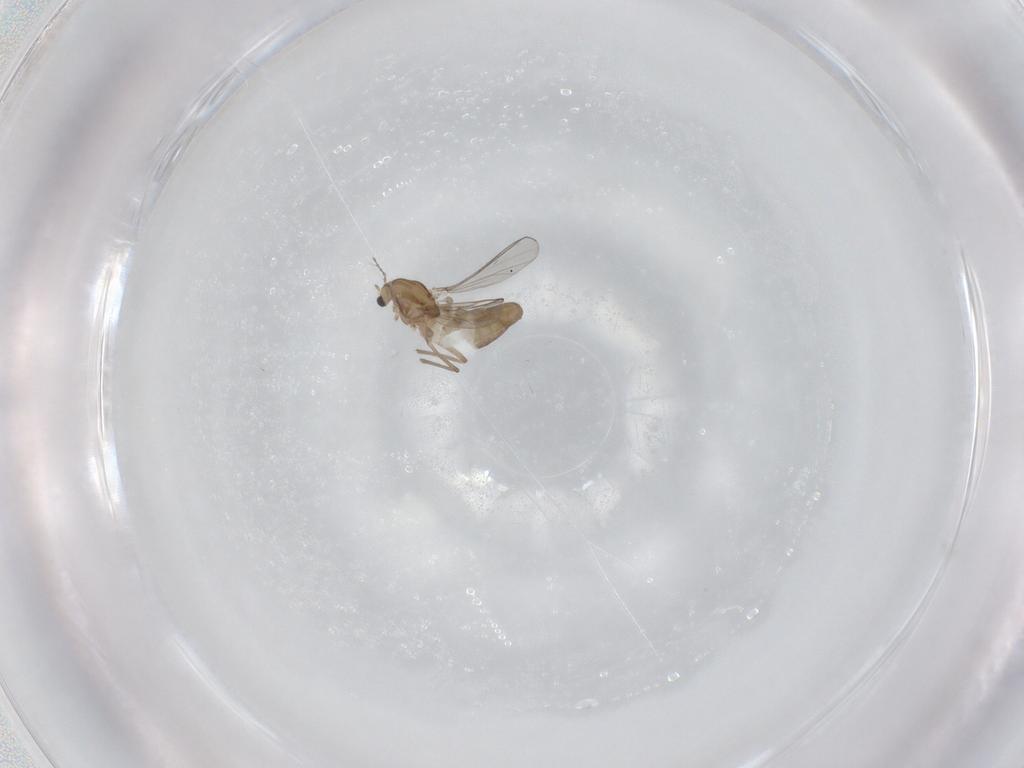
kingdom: Animalia
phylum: Arthropoda
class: Insecta
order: Diptera
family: Chironomidae
